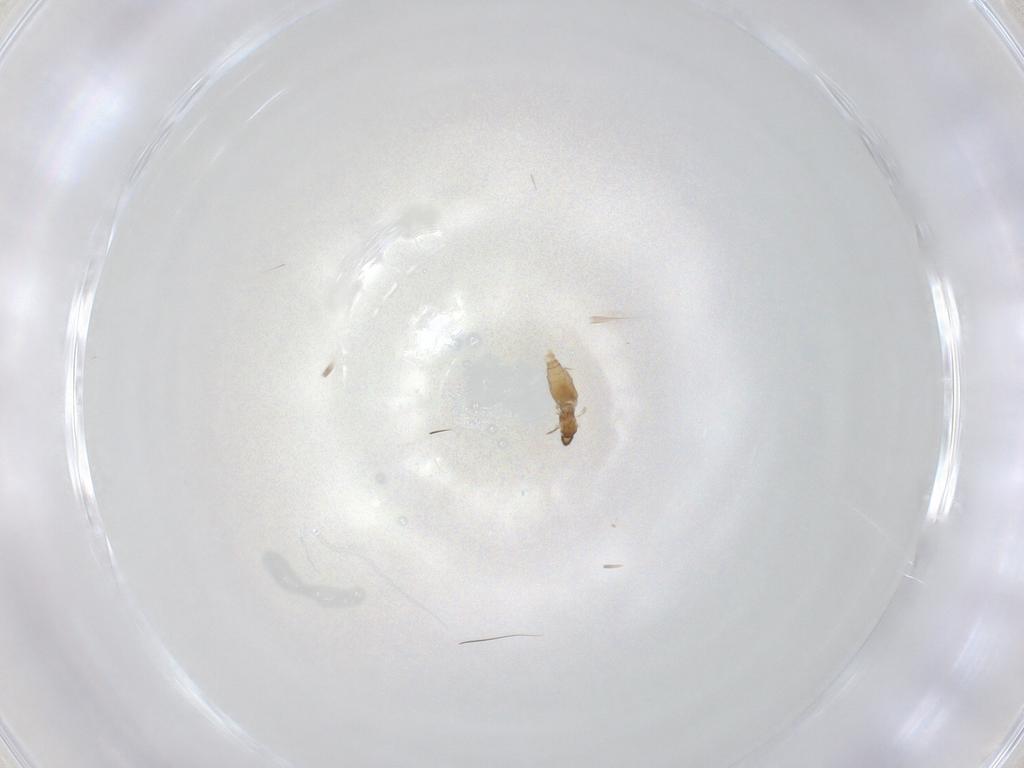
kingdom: Animalia
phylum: Arthropoda
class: Insecta
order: Diptera
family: Cecidomyiidae
